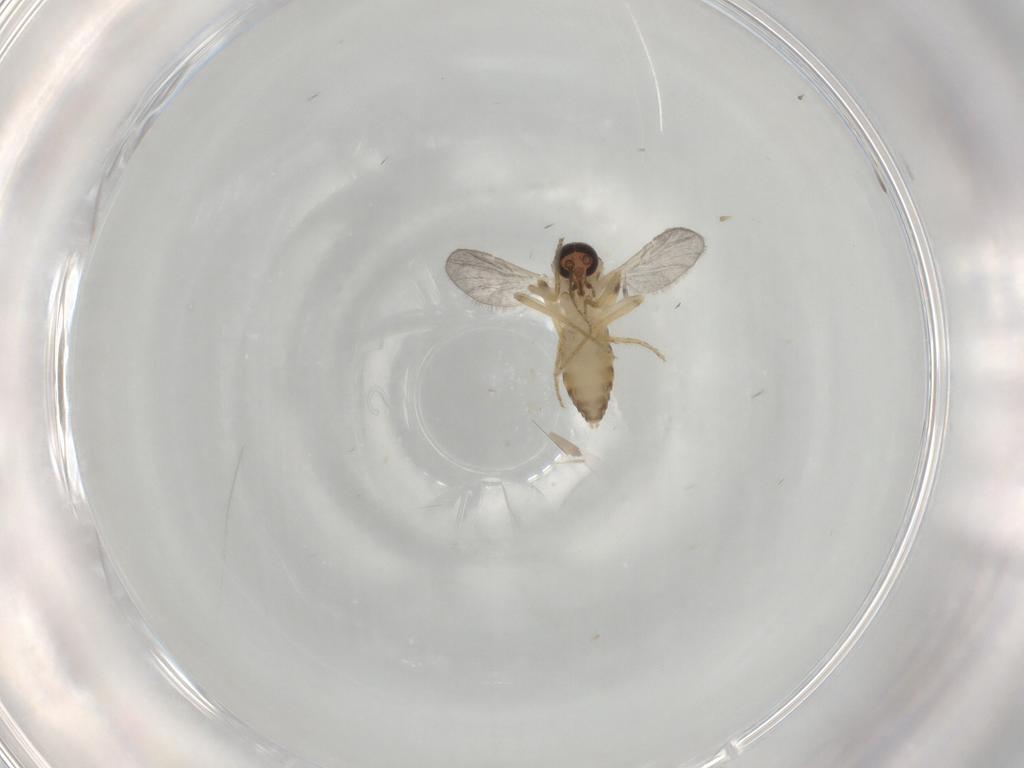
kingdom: Animalia
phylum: Arthropoda
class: Insecta
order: Diptera
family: Ceratopogonidae
